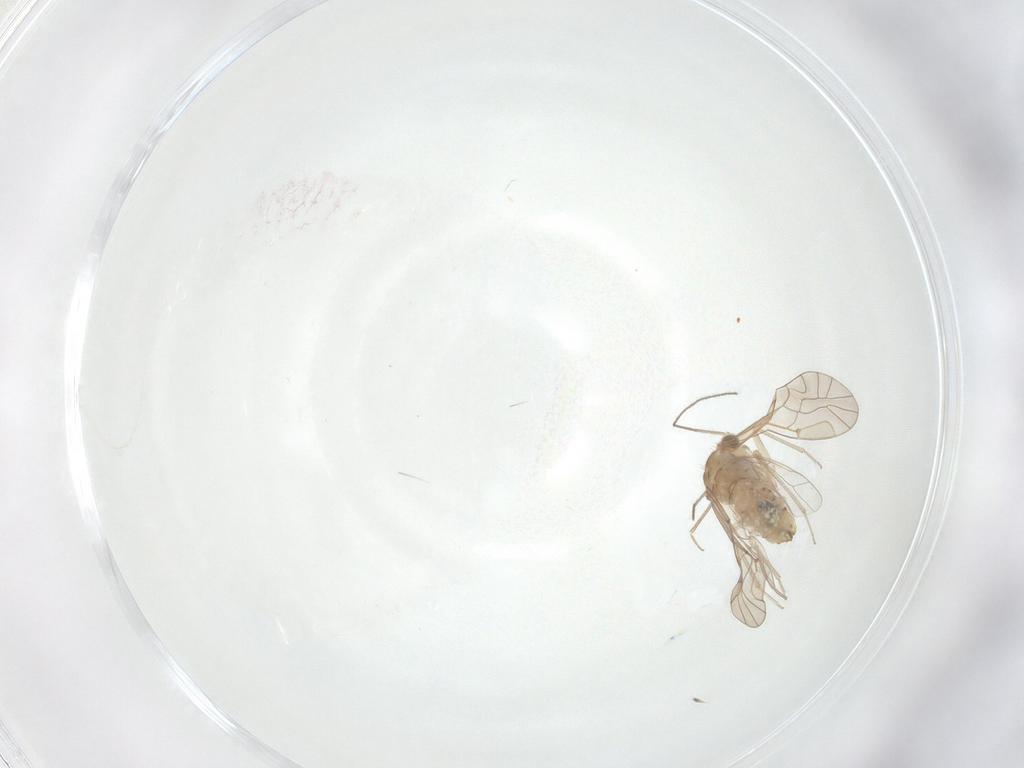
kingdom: Animalia
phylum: Arthropoda
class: Insecta
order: Psocodea
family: Lachesillidae
